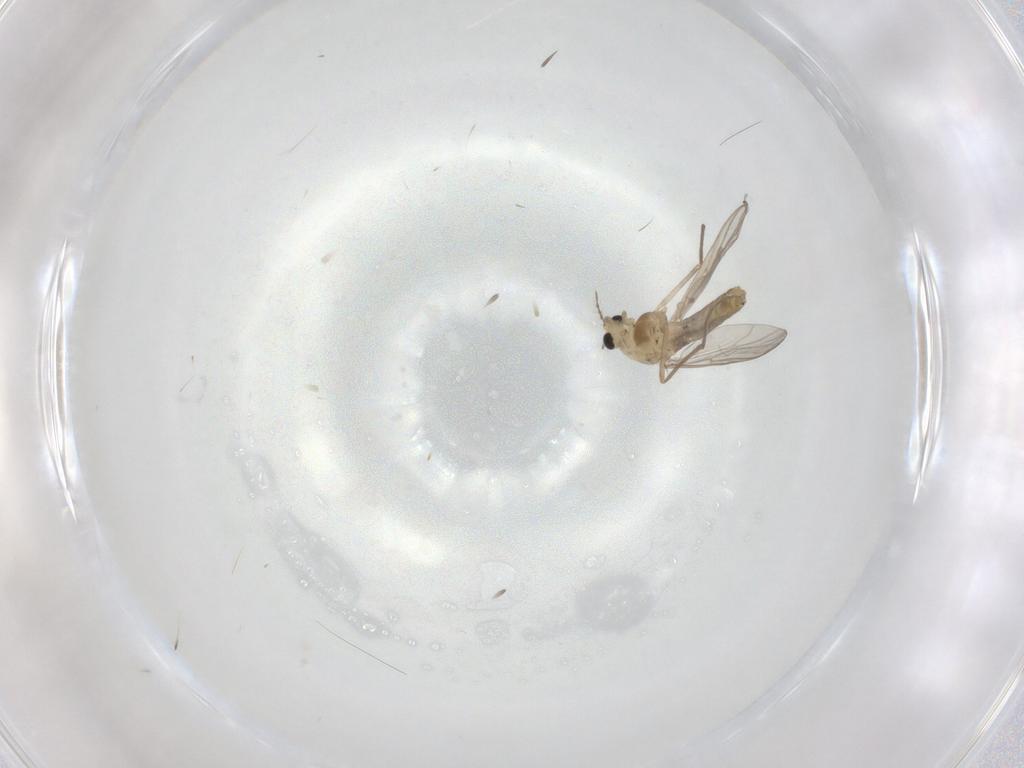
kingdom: Animalia
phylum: Arthropoda
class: Insecta
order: Diptera
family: Chironomidae
